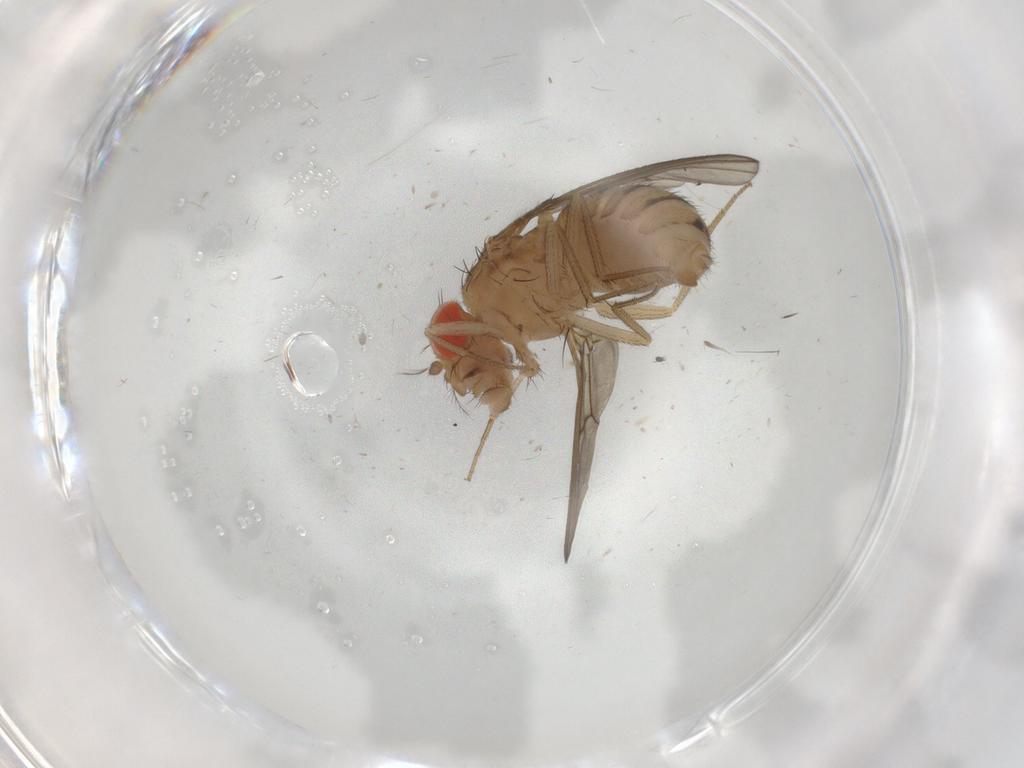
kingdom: Animalia
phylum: Arthropoda
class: Insecta
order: Diptera
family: Drosophilidae
